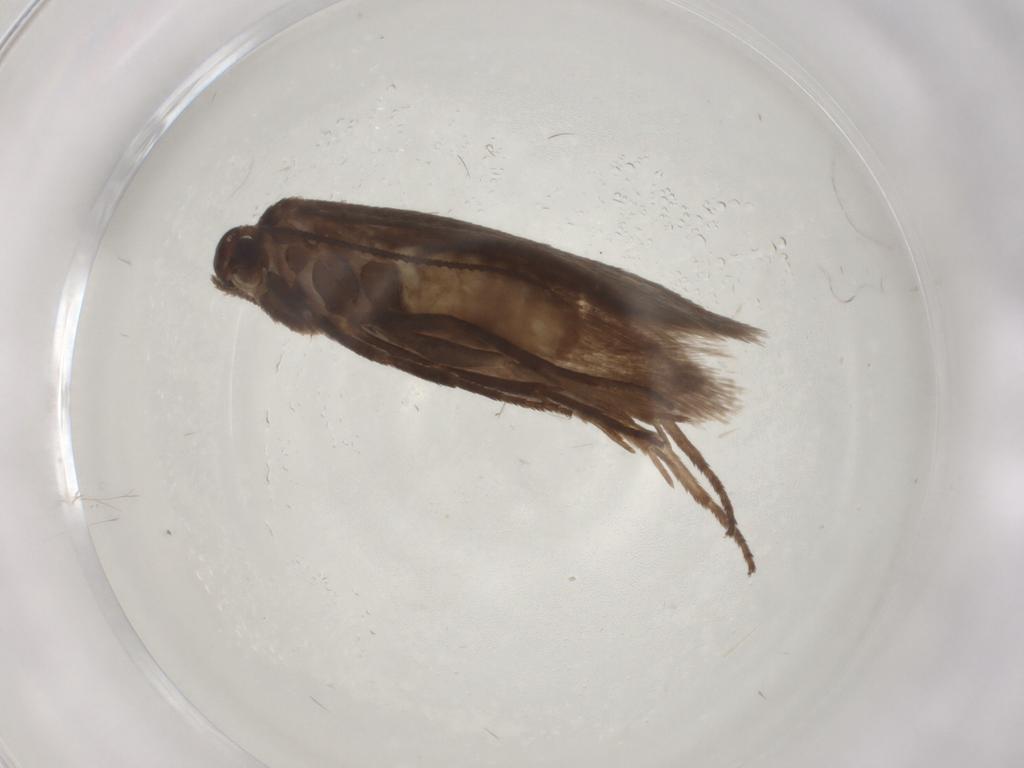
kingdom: Animalia
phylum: Arthropoda
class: Insecta
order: Lepidoptera
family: Limacodidae
